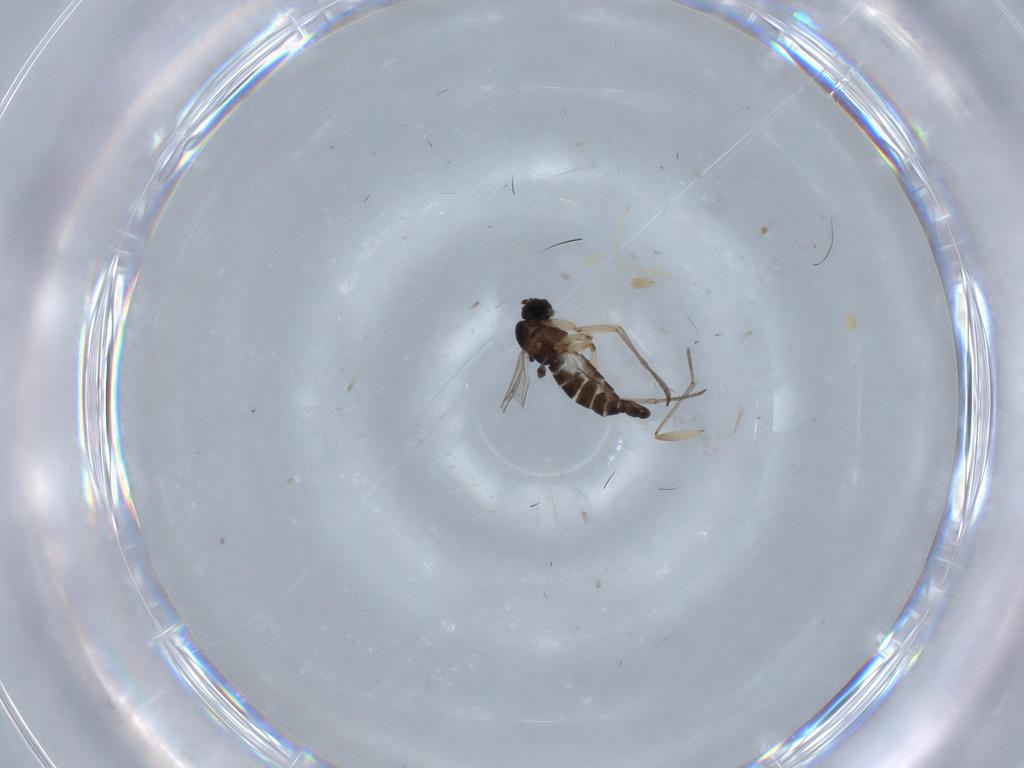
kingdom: Animalia
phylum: Arthropoda
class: Insecta
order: Diptera
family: Sciaridae
